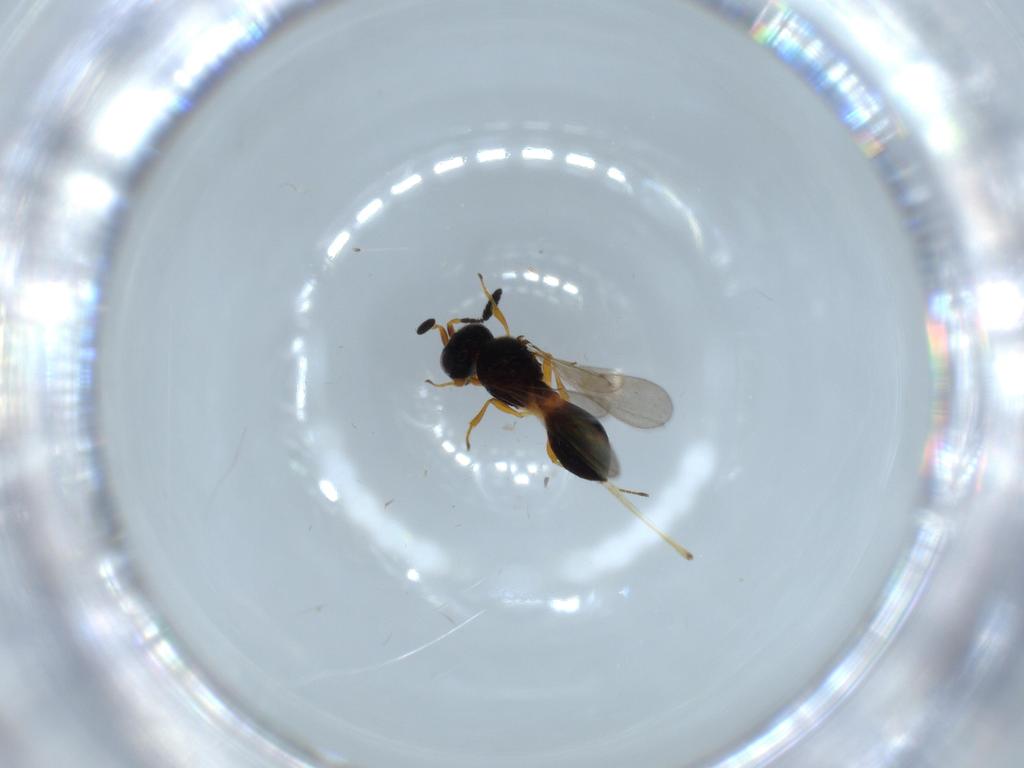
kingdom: Animalia
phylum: Arthropoda
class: Insecta
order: Hymenoptera
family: Scelionidae
